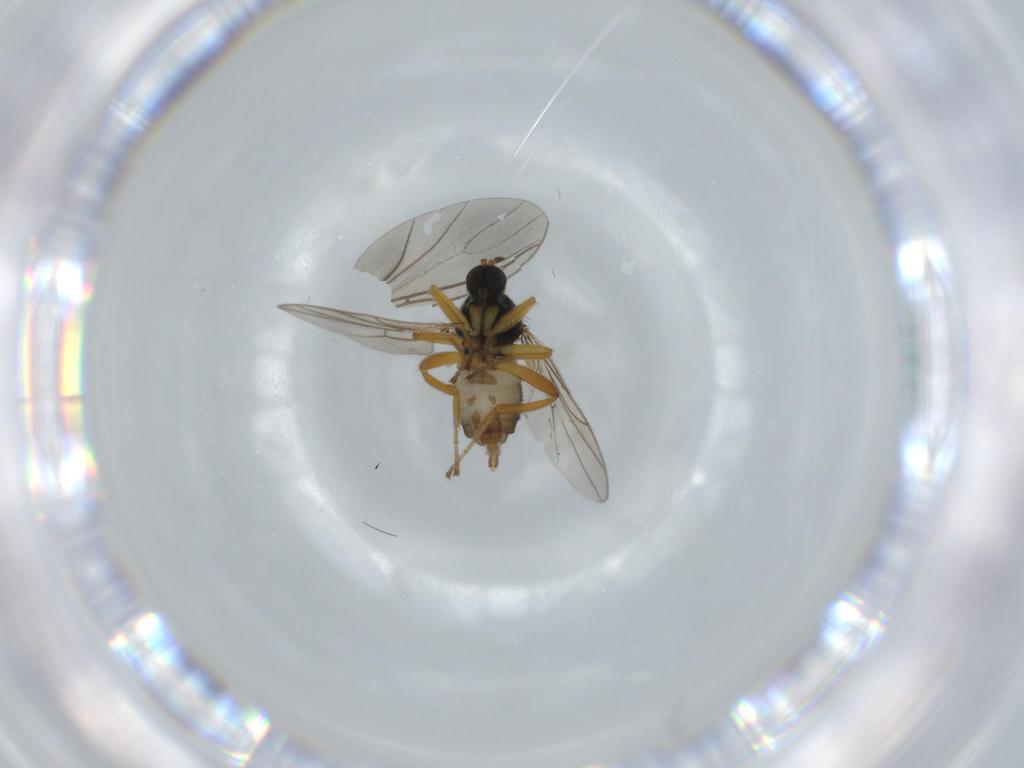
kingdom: Animalia
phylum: Arthropoda
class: Insecta
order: Diptera
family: Hybotidae
